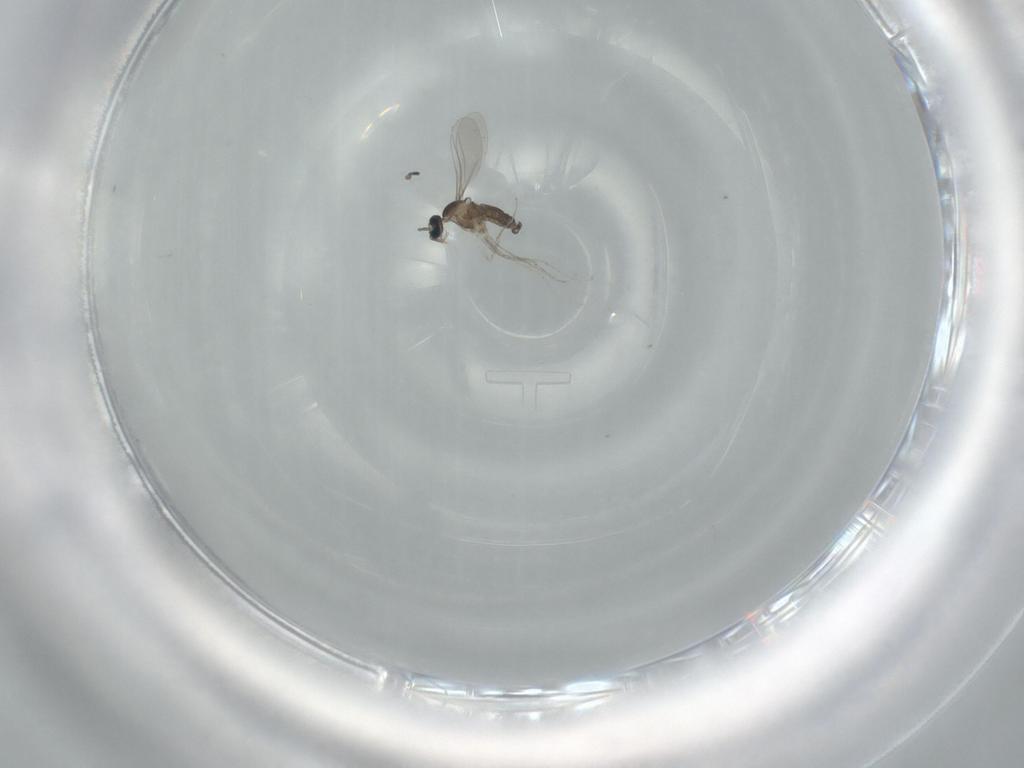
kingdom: Animalia
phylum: Arthropoda
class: Insecta
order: Diptera
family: Cecidomyiidae
